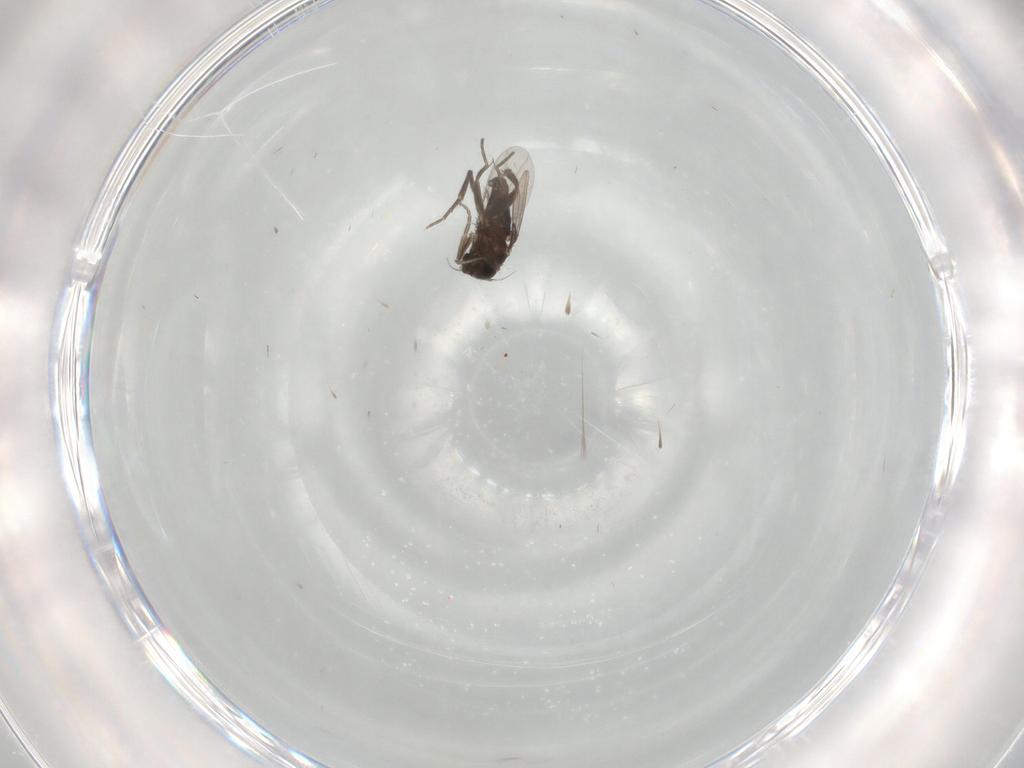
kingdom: Animalia
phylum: Arthropoda
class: Insecta
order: Diptera
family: Phoridae
